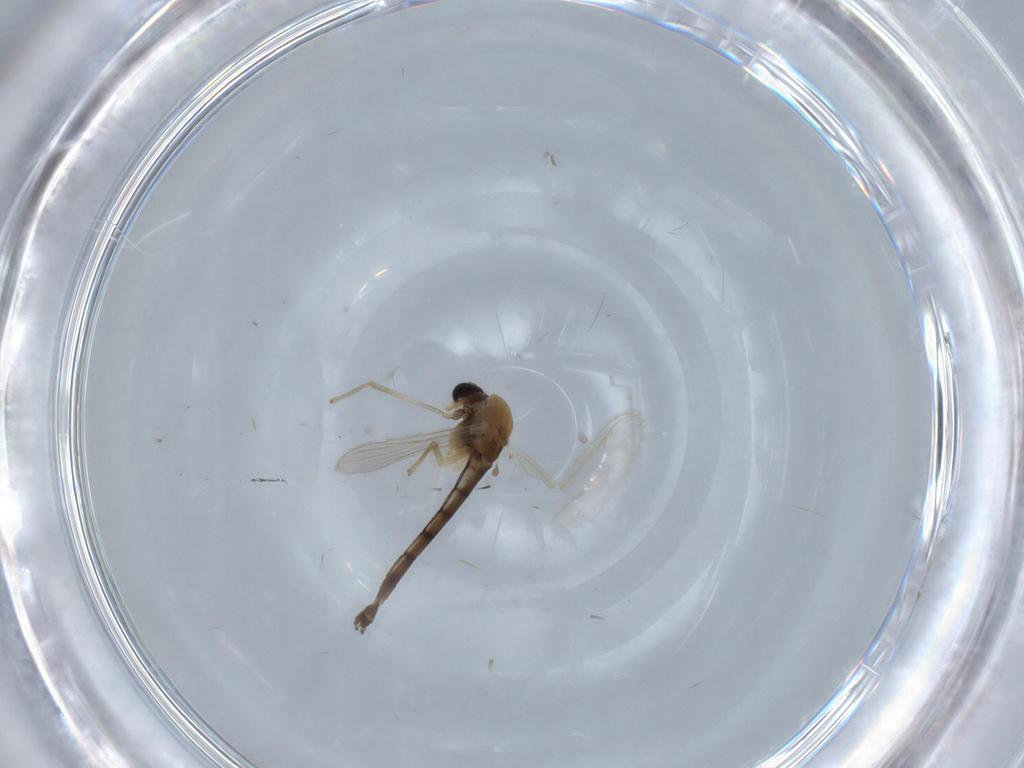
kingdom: Animalia
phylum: Arthropoda
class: Insecta
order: Diptera
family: Chironomidae
